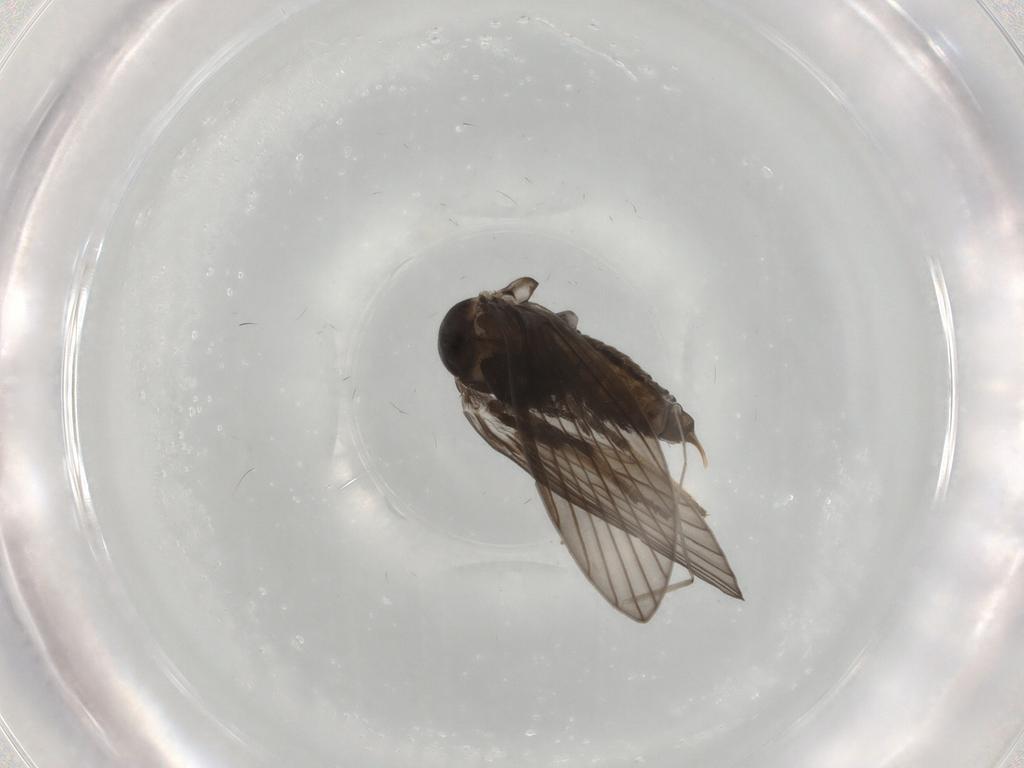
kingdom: Animalia
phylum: Arthropoda
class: Insecta
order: Diptera
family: Psychodidae
